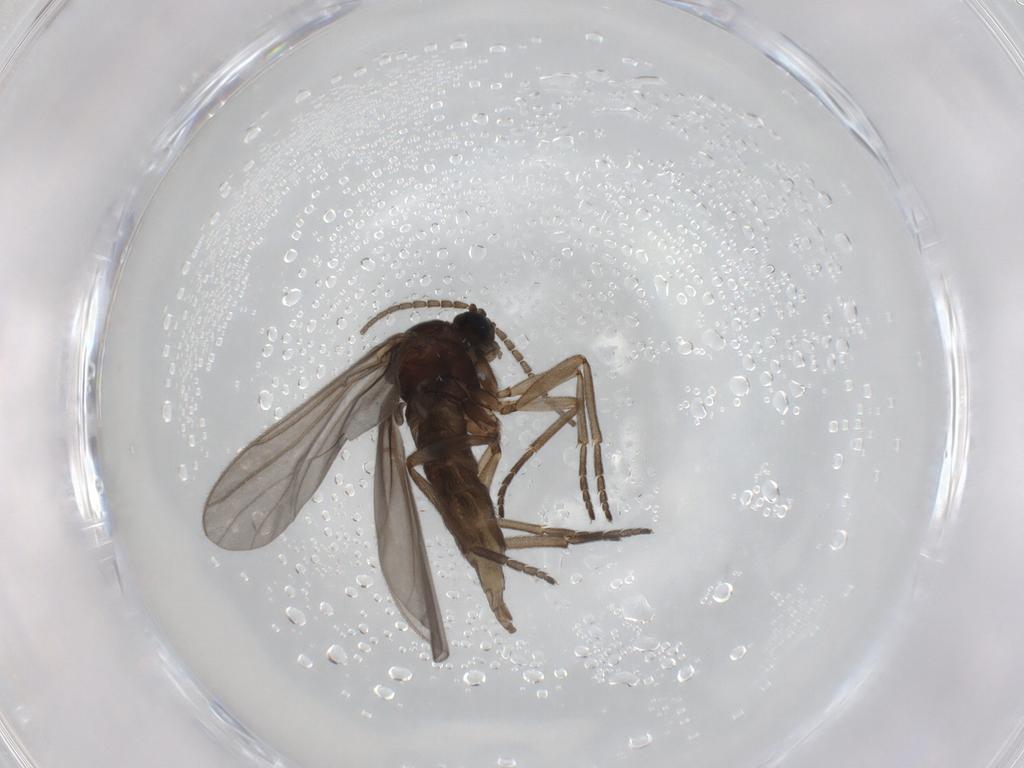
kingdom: Animalia
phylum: Arthropoda
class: Insecta
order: Diptera
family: Sciaridae
